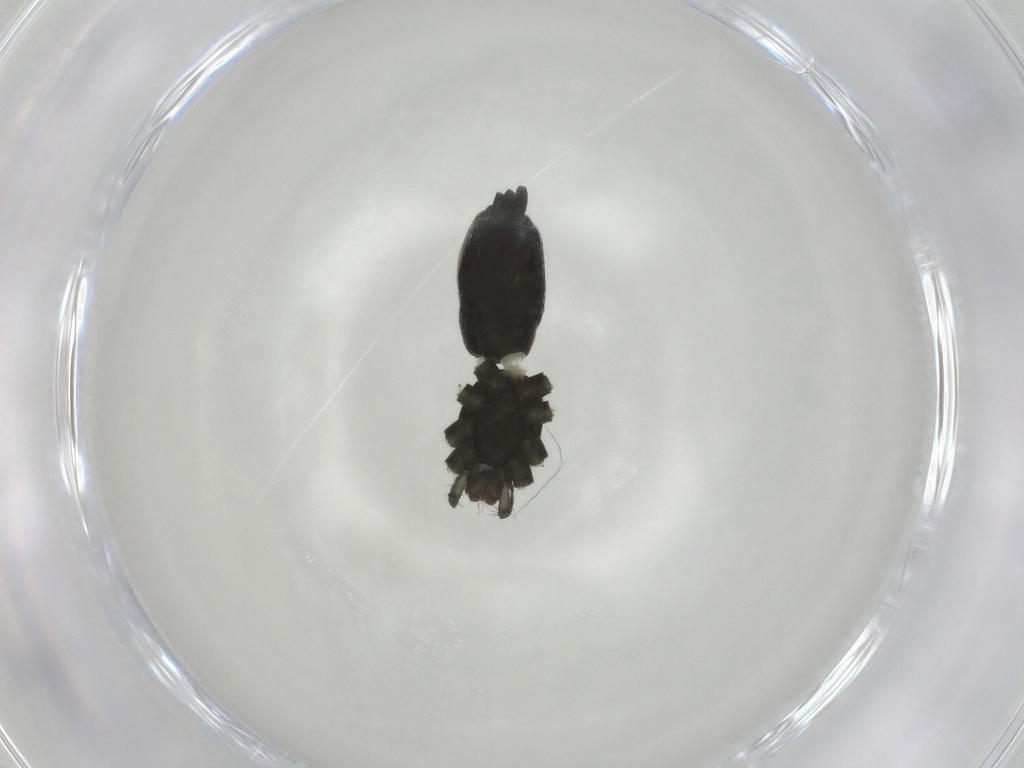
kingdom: Animalia
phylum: Arthropoda
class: Arachnida
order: Araneae
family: Gnaphosidae
